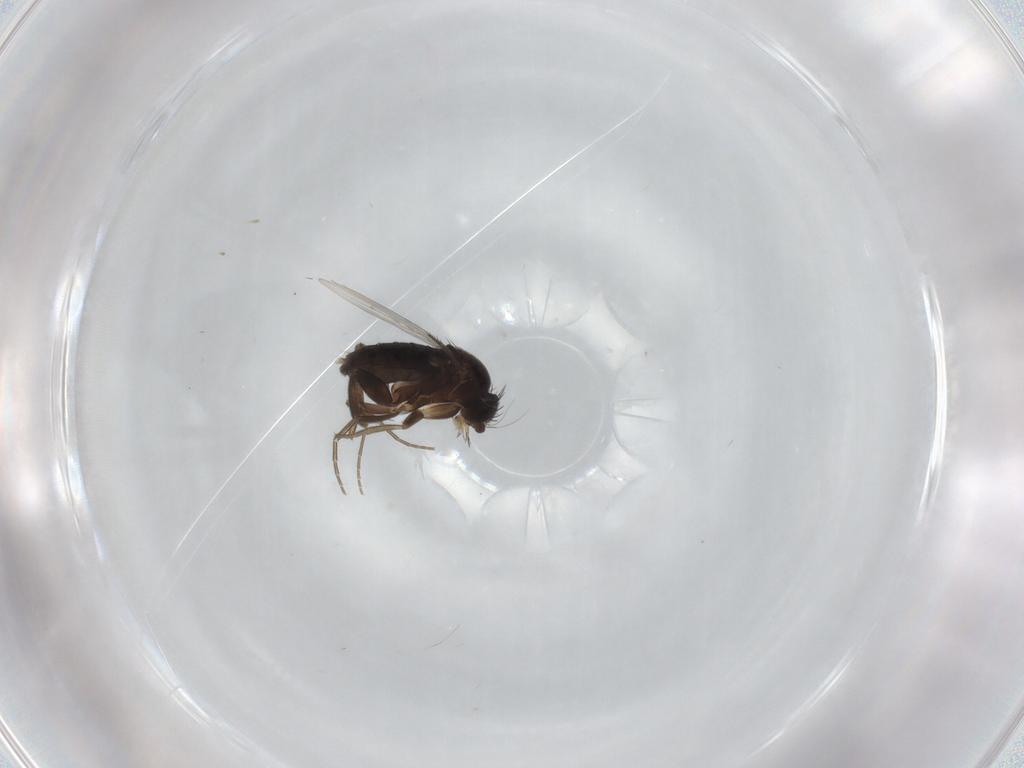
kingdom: Animalia
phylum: Arthropoda
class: Insecta
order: Diptera
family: Phoridae
